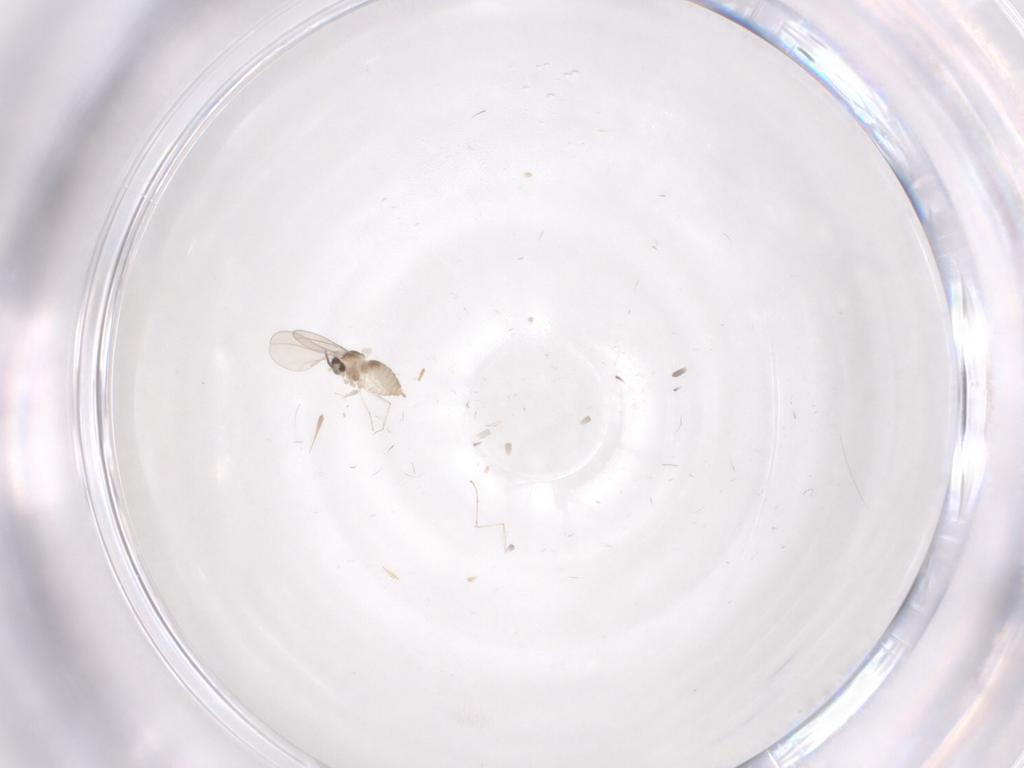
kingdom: Animalia
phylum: Arthropoda
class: Insecta
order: Diptera
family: Cecidomyiidae
